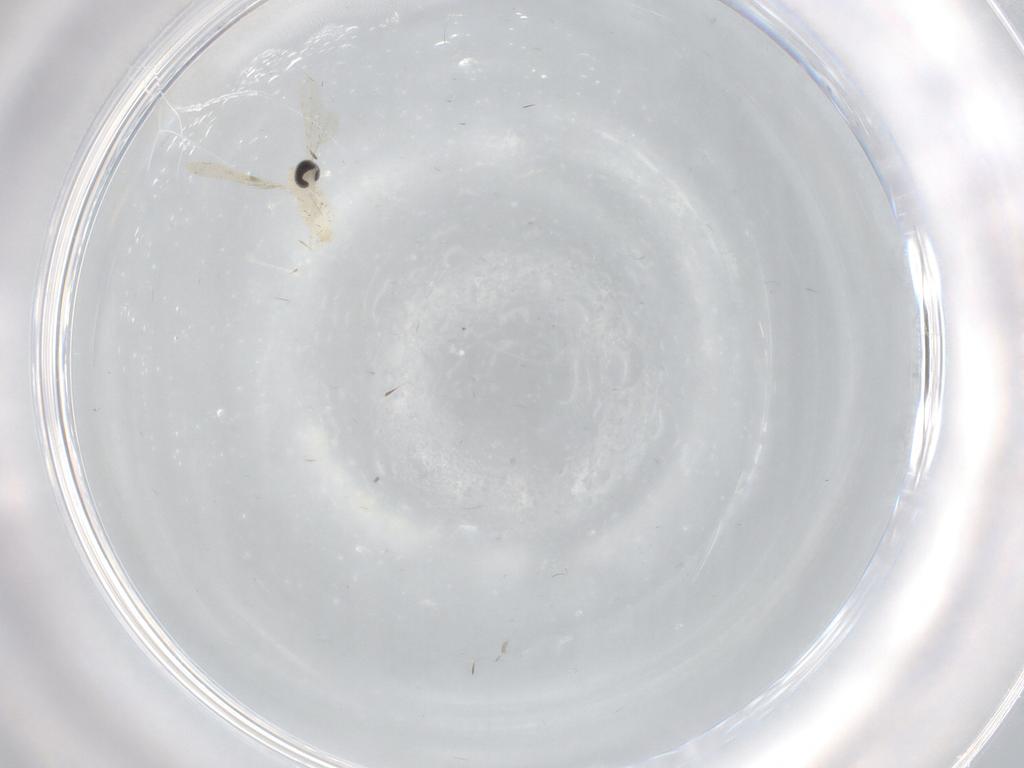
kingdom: Animalia
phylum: Arthropoda
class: Insecta
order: Diptera
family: Cecidomyiidae
